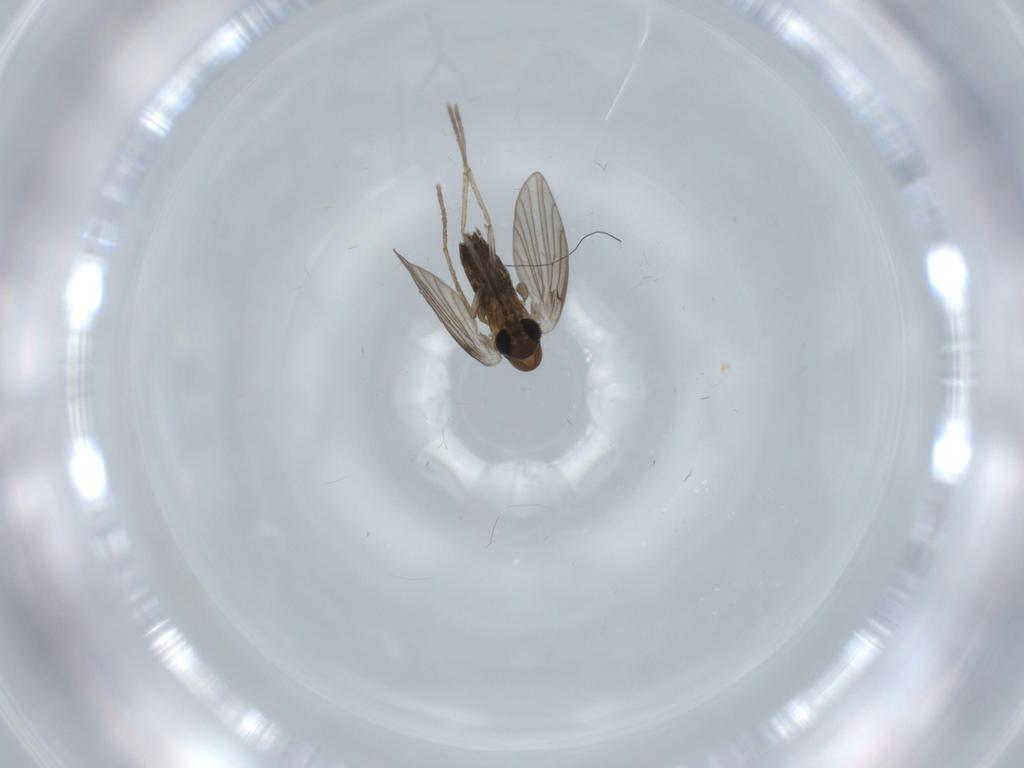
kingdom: Animalia
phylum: Arthropoda
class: Insecta
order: Diptera
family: Psychodidae
